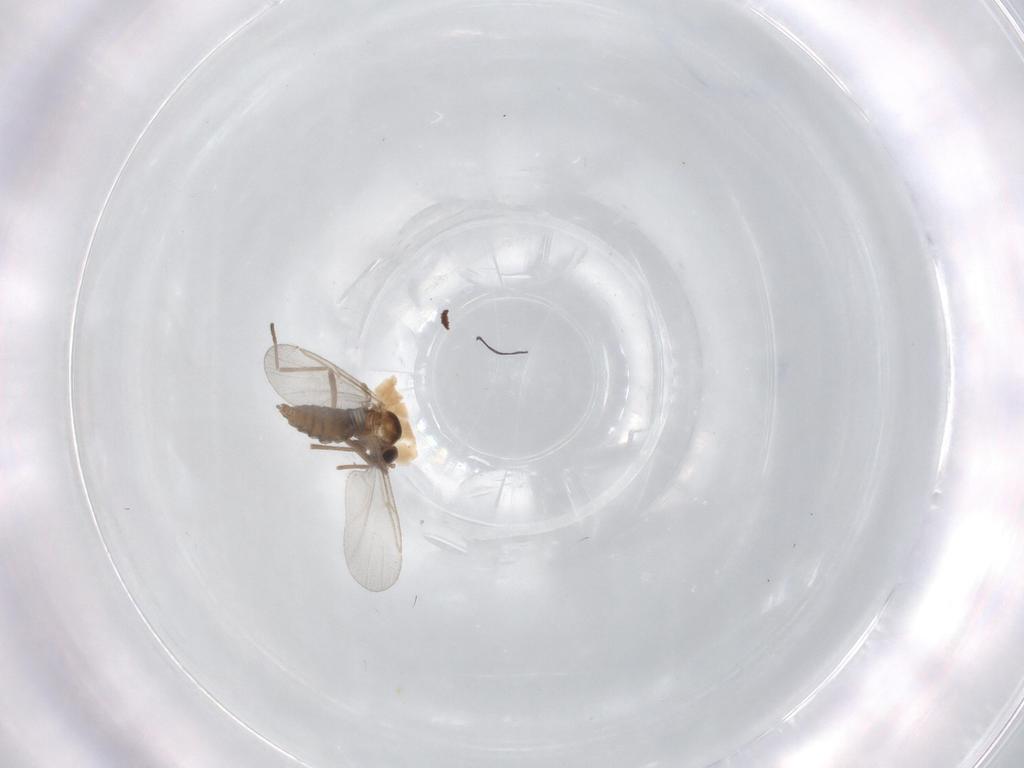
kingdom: Animalia
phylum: Arthropoda
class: Insecta
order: Diptera
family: Cecidomyiidae
